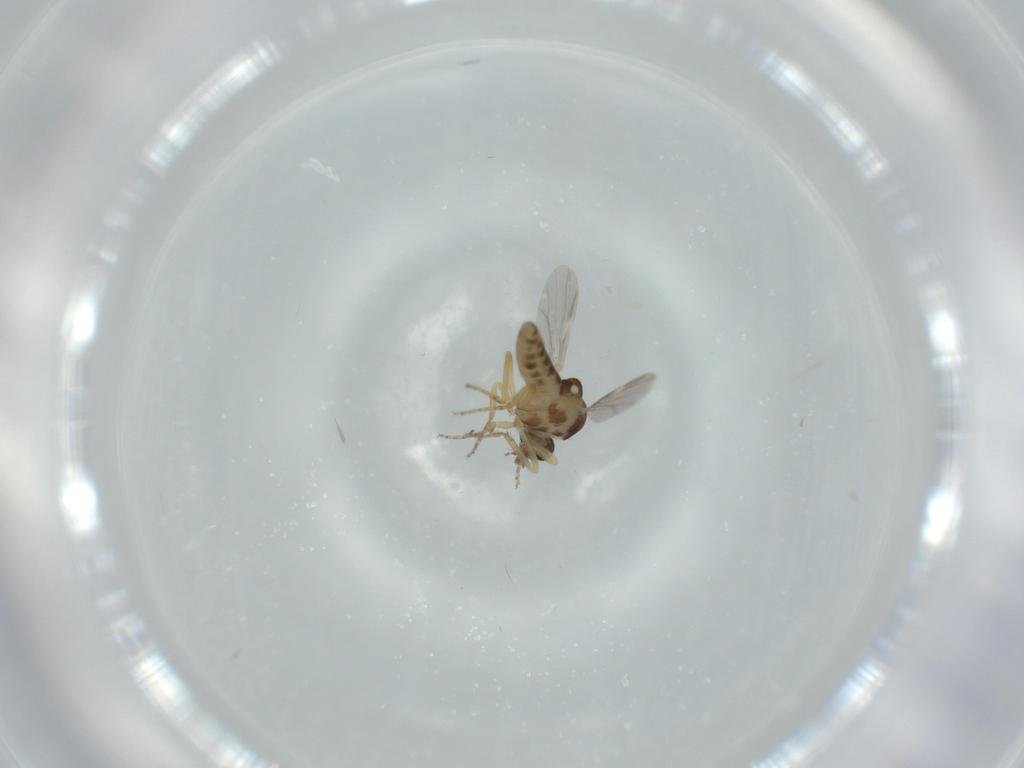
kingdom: Animalia
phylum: Arthropoda
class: Insecta
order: Diptera
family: Ceratopogonidae
